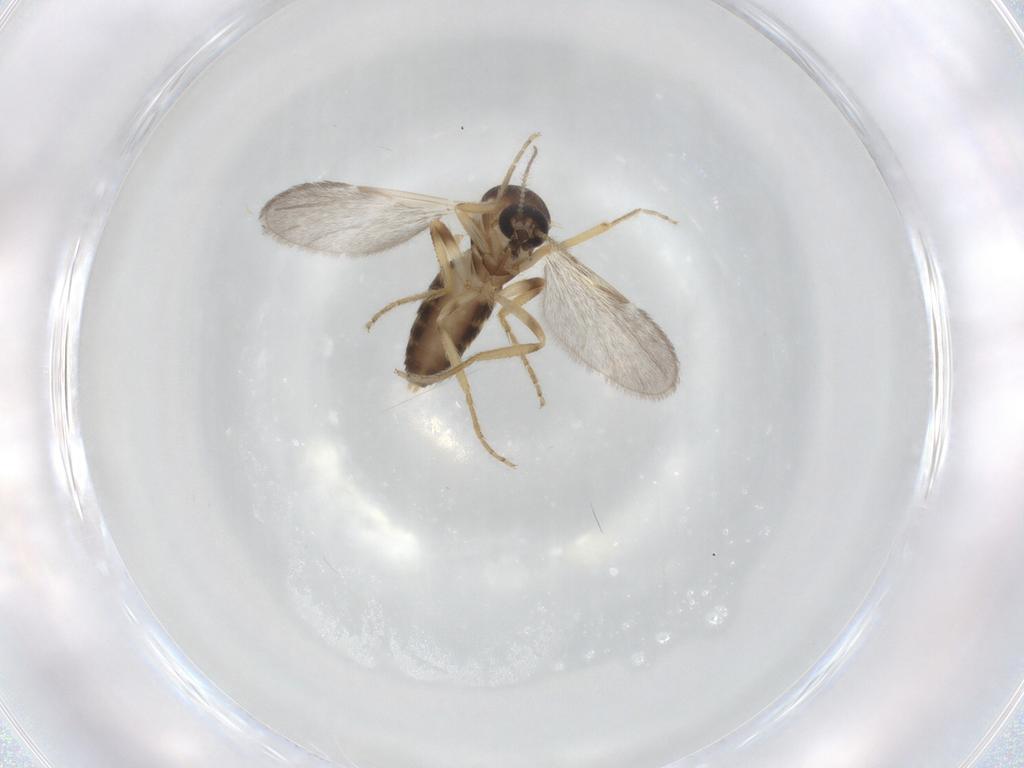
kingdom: Animalia
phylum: Arthropoda
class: Insecta
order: Diptera
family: Ceratopogonidae
